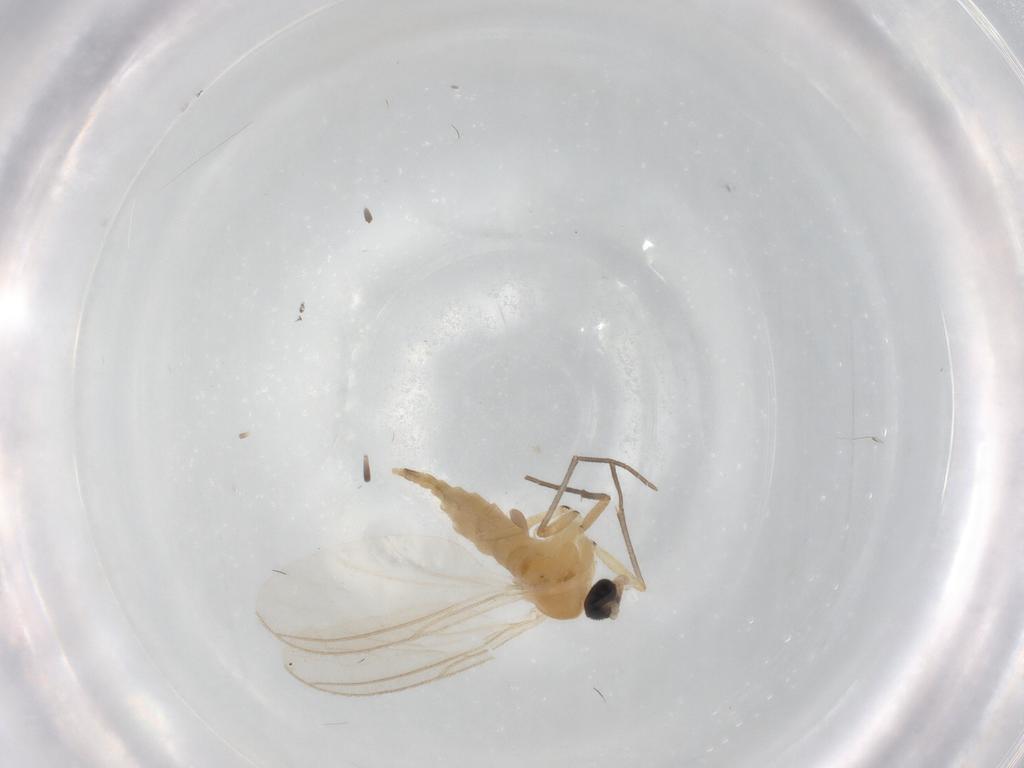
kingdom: Animalia
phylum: Arthropoda
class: Insecta
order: Diptera
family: Sciaridae
